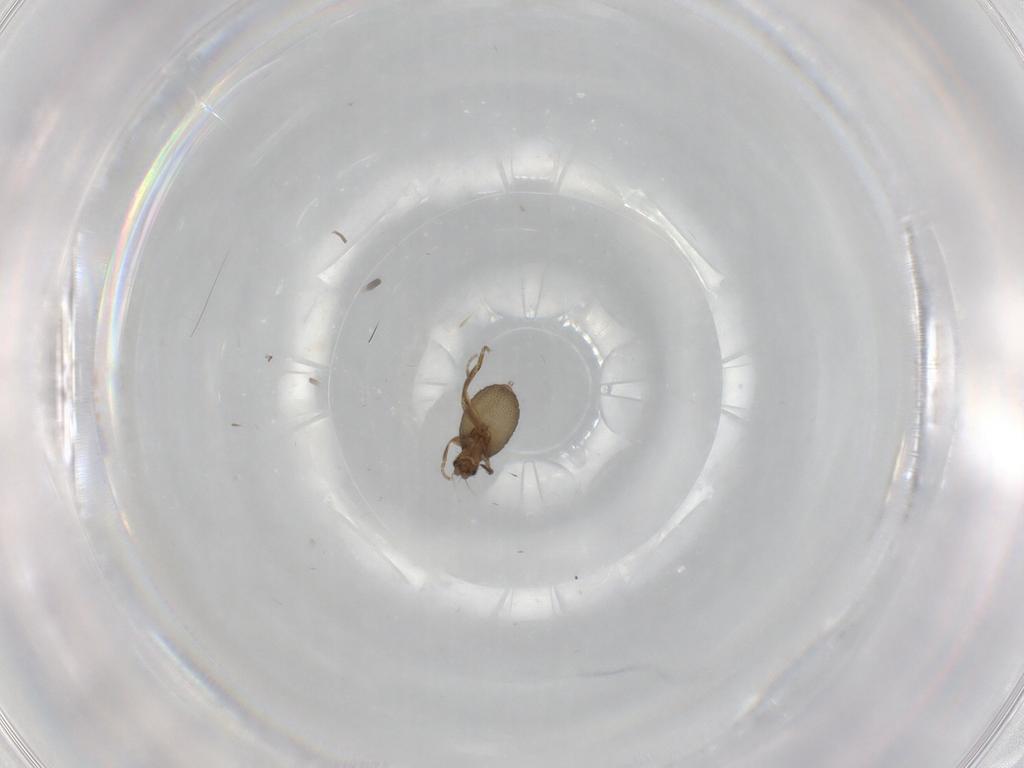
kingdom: Animalia
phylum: Arthropoda
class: Insecta
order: Diptera
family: Phoridae
